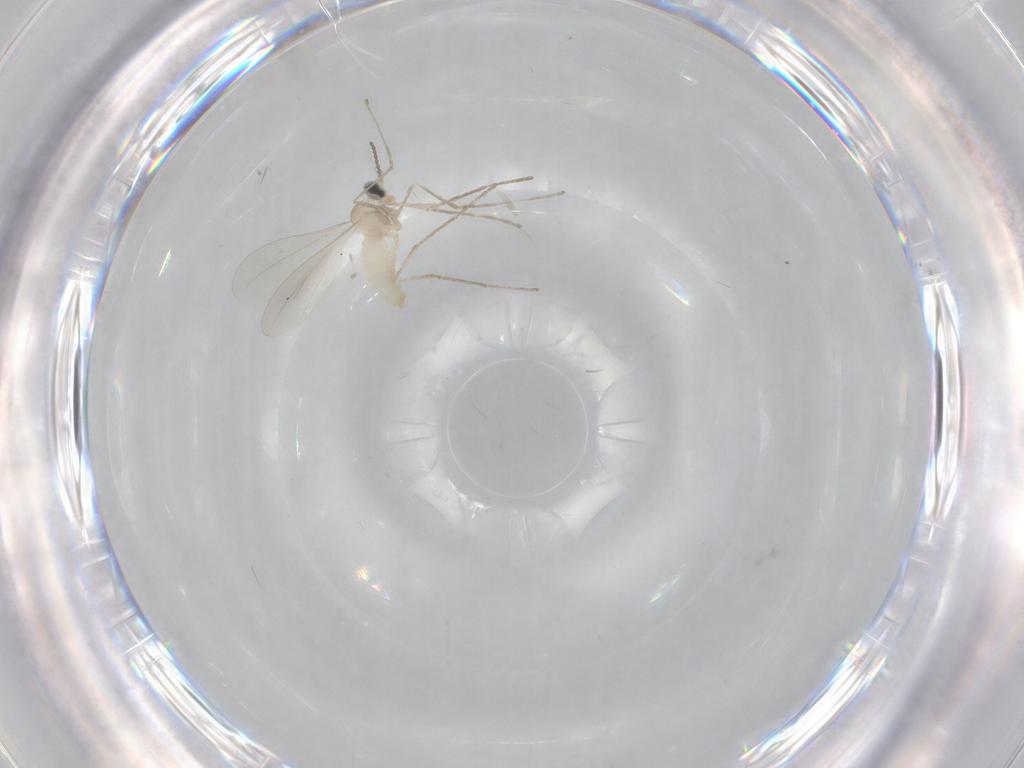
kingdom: Animalia
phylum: Arthropoda
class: Insecta
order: Diptera
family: Cecidomyiidae
